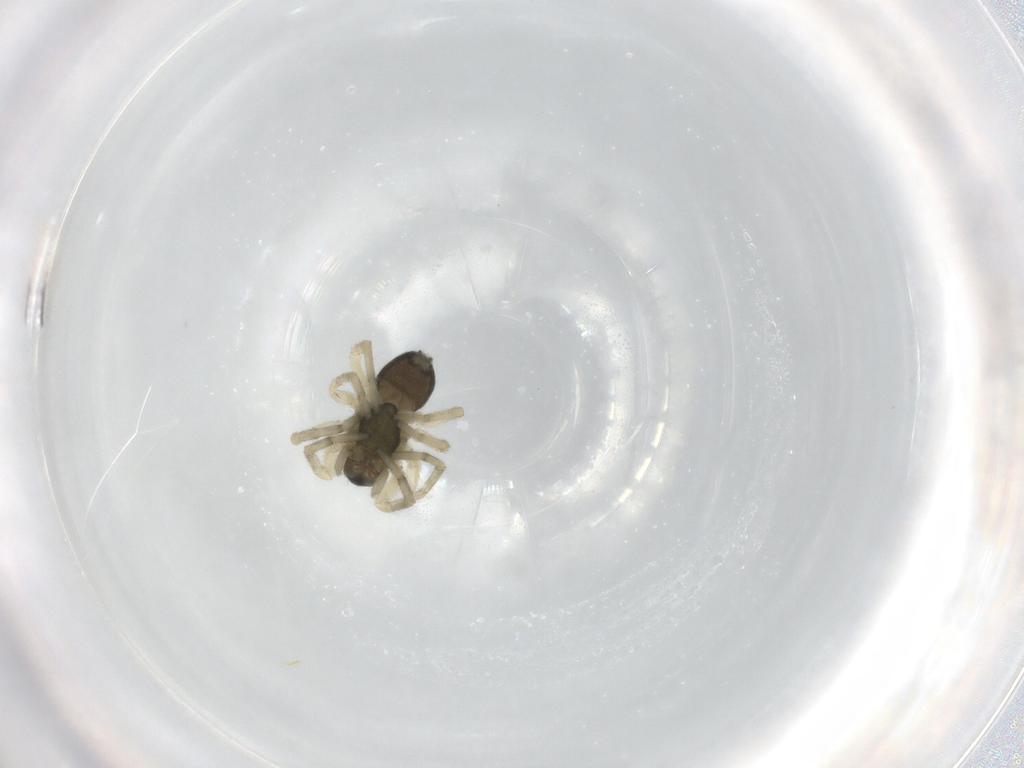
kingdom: Animalia
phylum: Arthropoda
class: Arachnida
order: Araneae
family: Trachelidae
